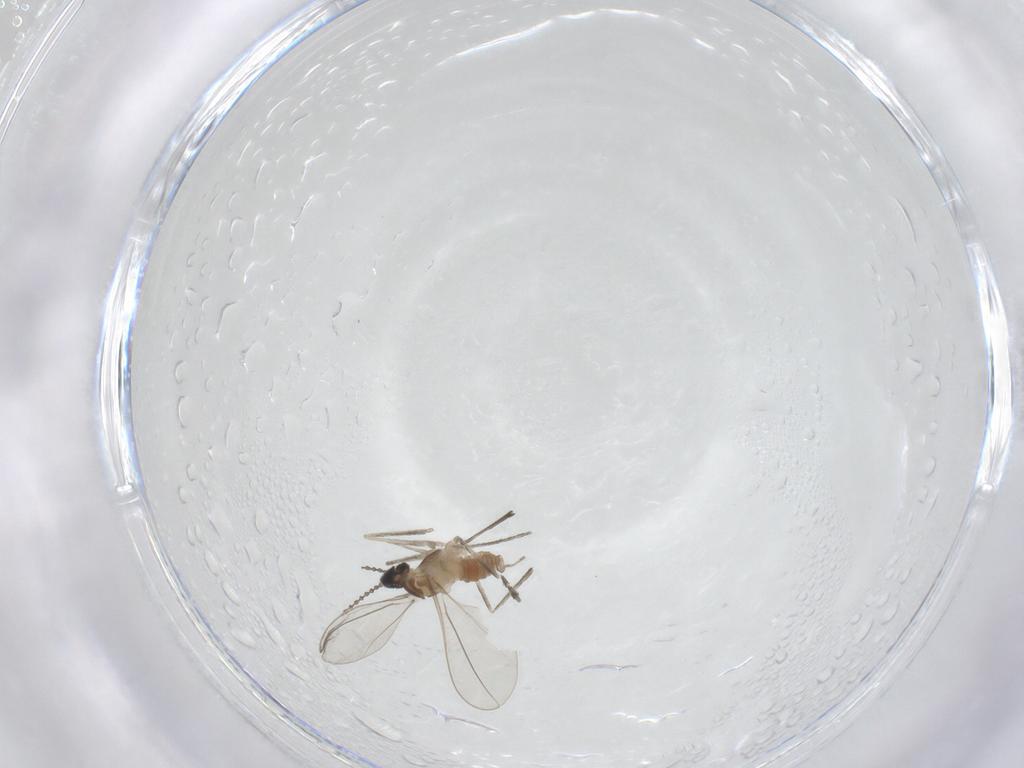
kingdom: Animalia
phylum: Arthropoda
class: Insecta
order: Diptera
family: Cecidomyiidae
